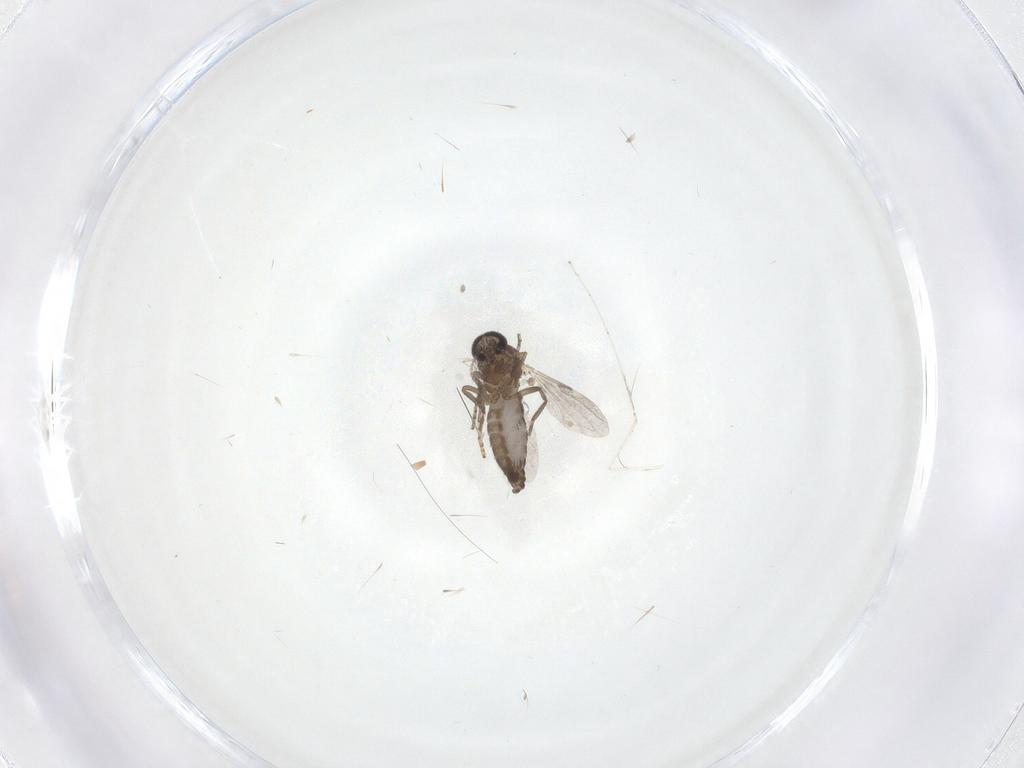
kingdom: Animalia
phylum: Arthropoda
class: Insecta
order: Diptera
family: Ceratopogonidae
